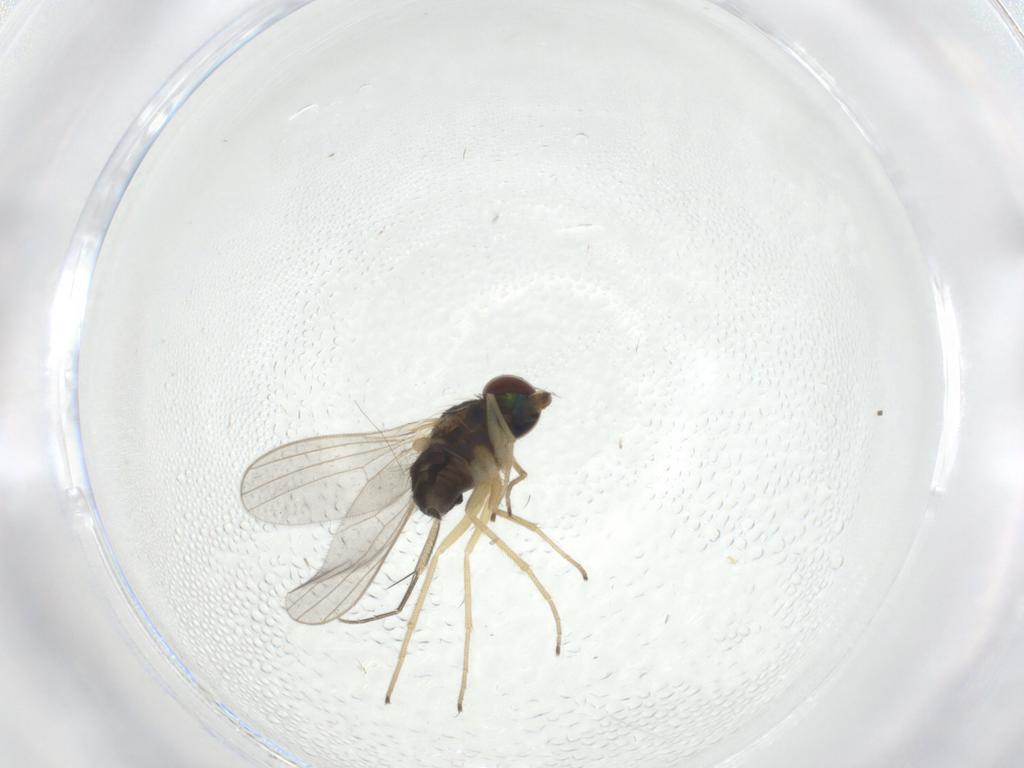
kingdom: Animalia
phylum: Arthropoda
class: Insecta
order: Diptera
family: Dolichopodidae
